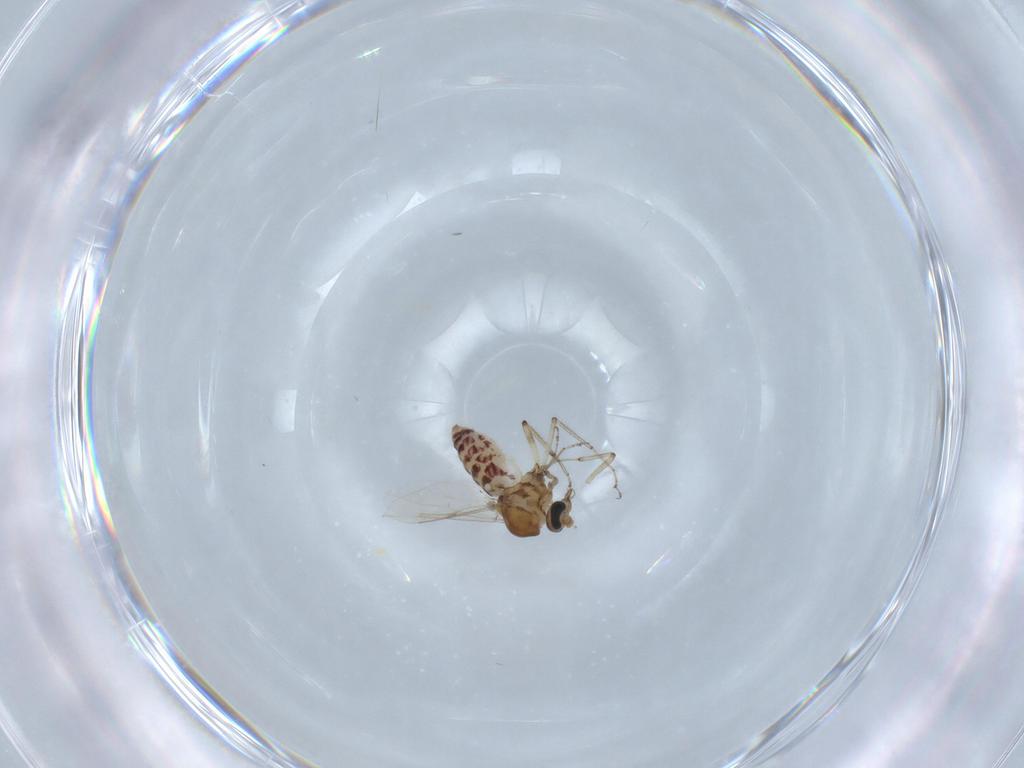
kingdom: Animalia
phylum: Arthropoda
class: Insecta
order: Diptera
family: Ceratopogonidae
